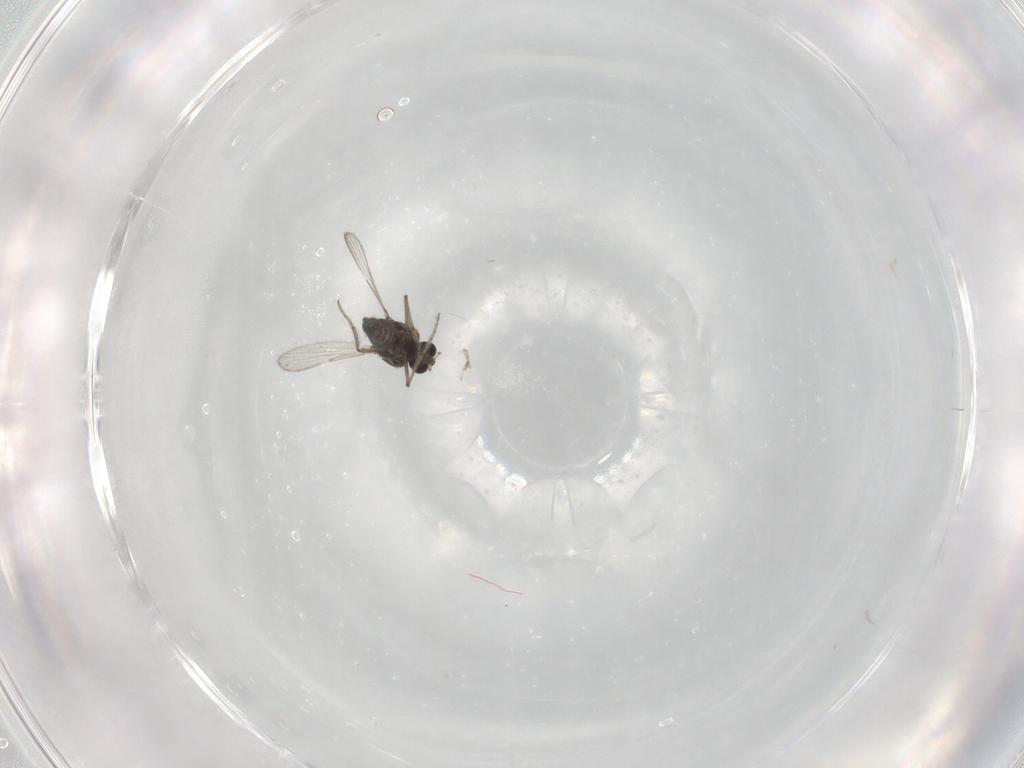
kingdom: Animalia
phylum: Arthropoda
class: Insecta
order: Diptera
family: Ceratopogonidae
